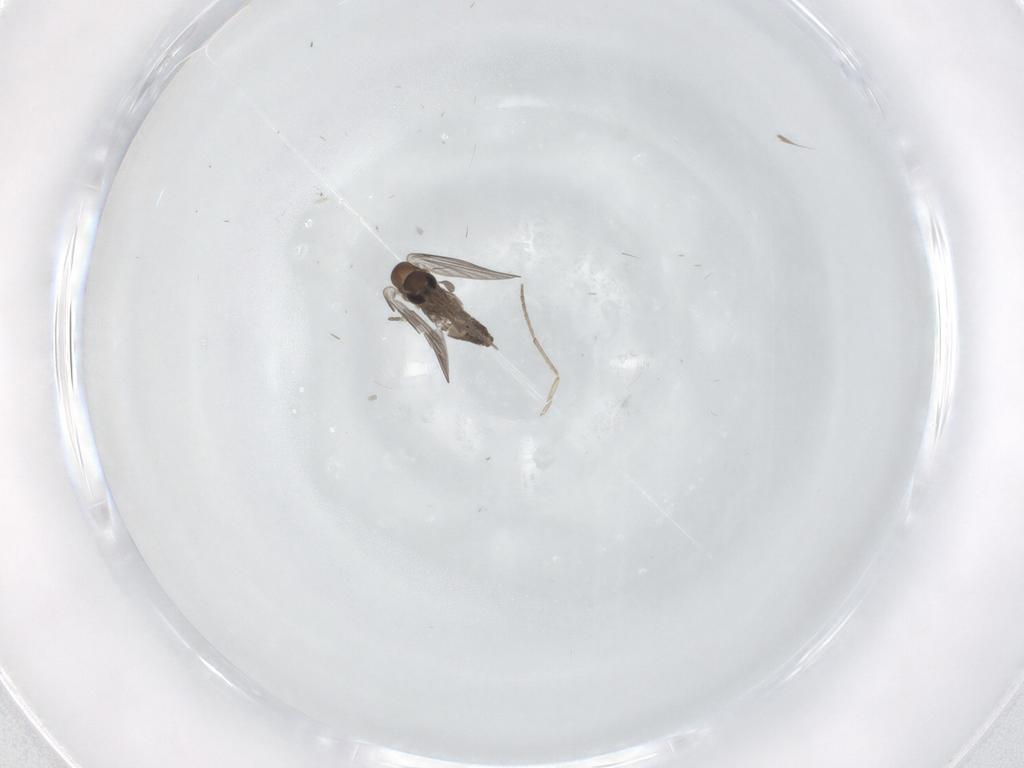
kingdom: Animalia
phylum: Arthropoda
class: Insecta
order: Diptera
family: Cecidomyiidae
